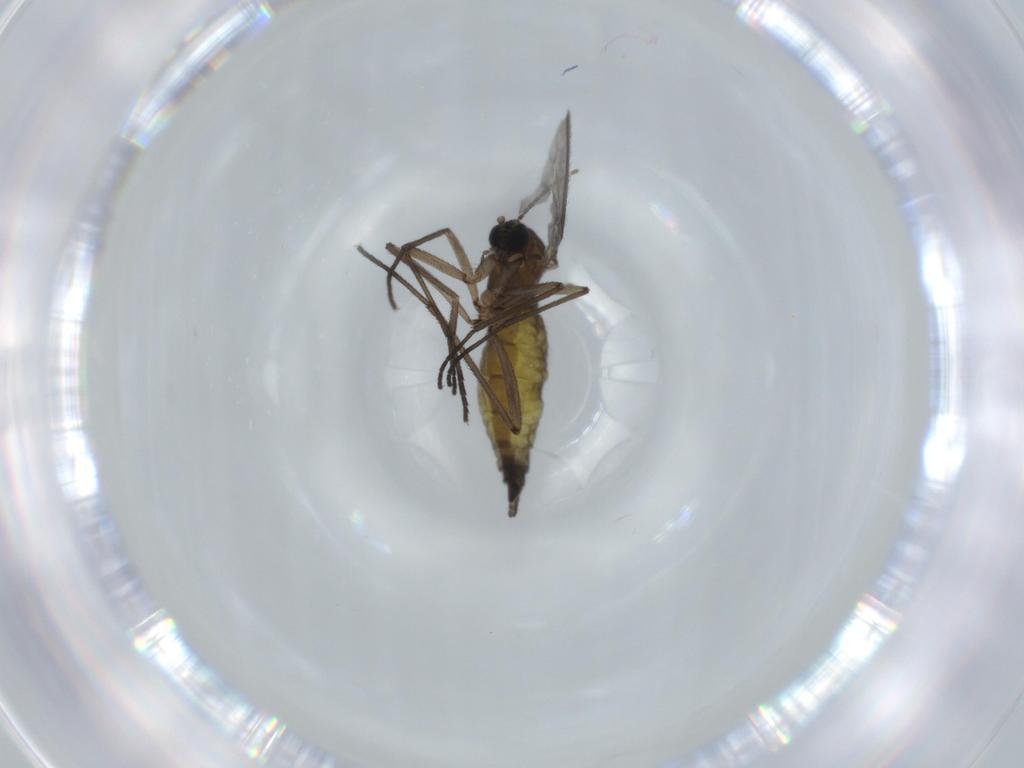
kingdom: Animalia
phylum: Arthropoda
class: Insecta
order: Diptera
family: Sciaridae
